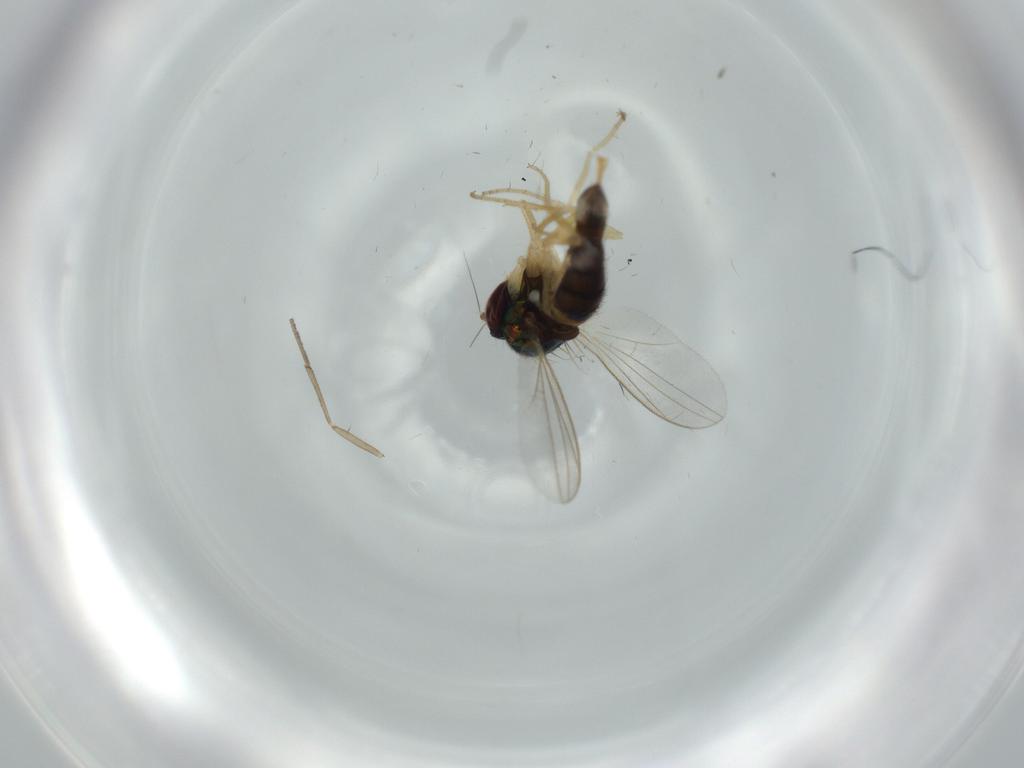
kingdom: Animalia
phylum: Arthropoda
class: Insecta
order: Diptera
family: Dolichopodidae
